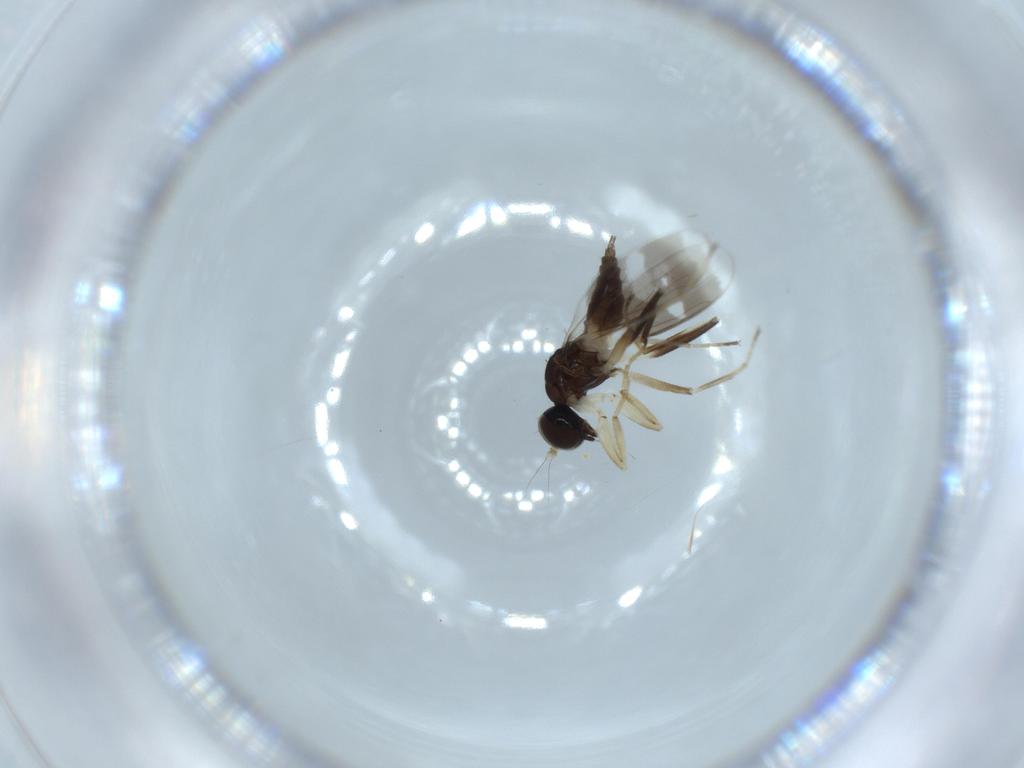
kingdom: Animalia
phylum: Arthropoda
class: Insecta
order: Diptera
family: Hybotidae
